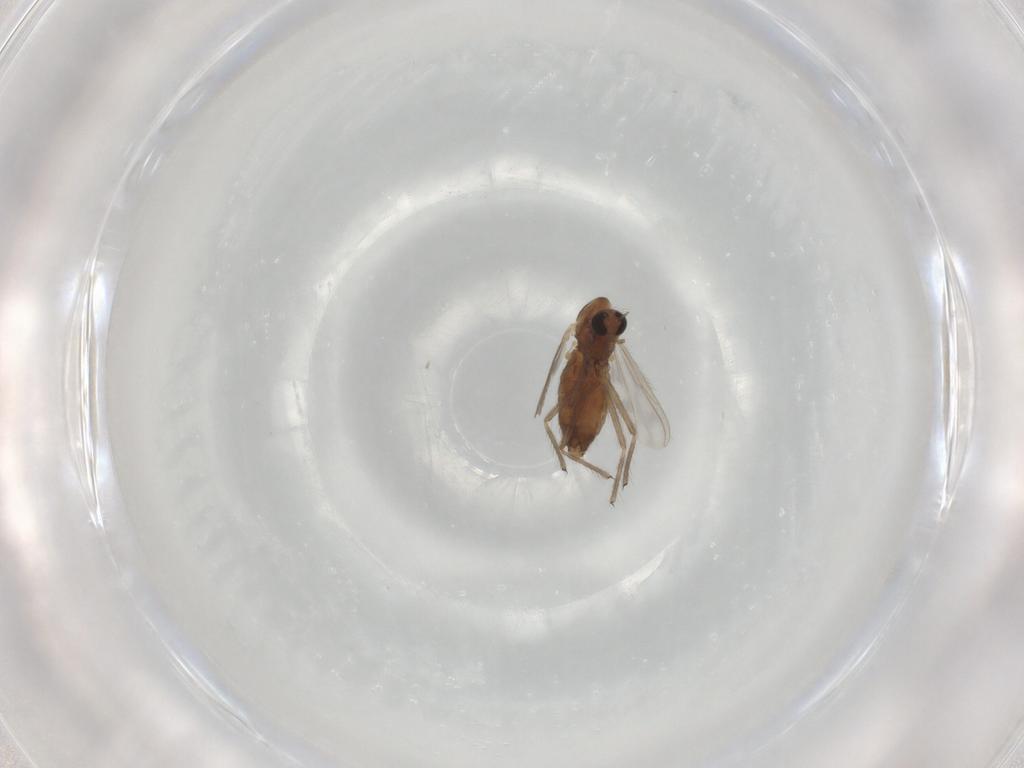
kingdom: Animalia
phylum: Arthropoda
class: Insecta
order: Diptera
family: Chironomidae
